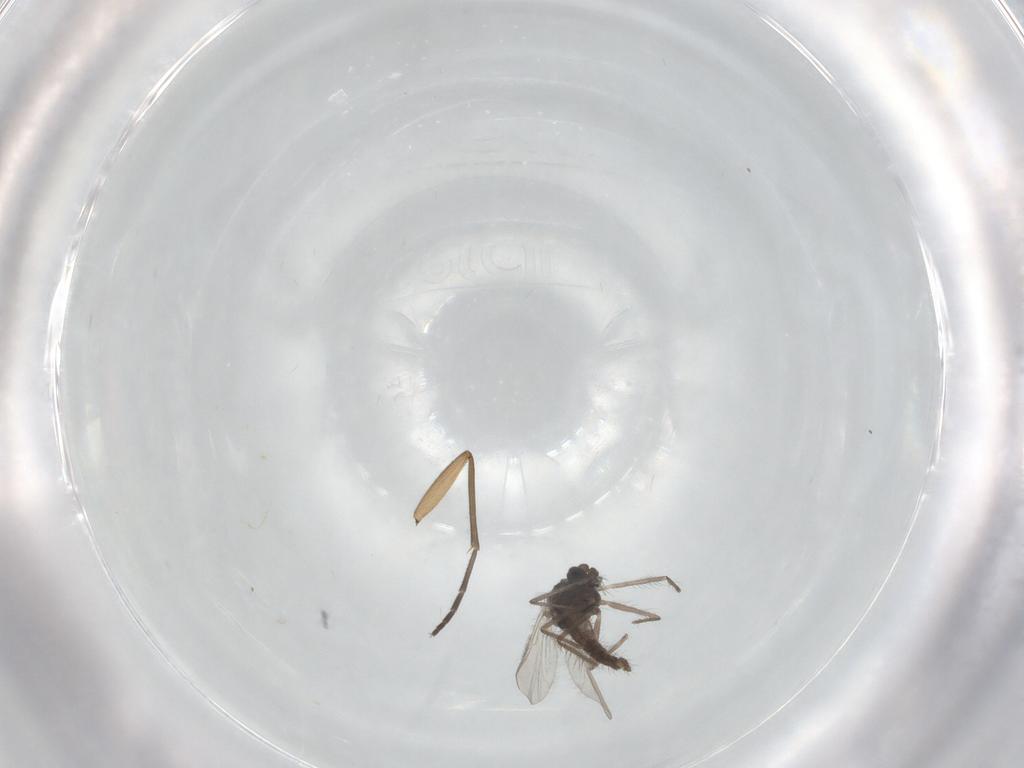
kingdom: Animalia
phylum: Arthropoda
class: Insecta
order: Diptera
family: Chironomidae
